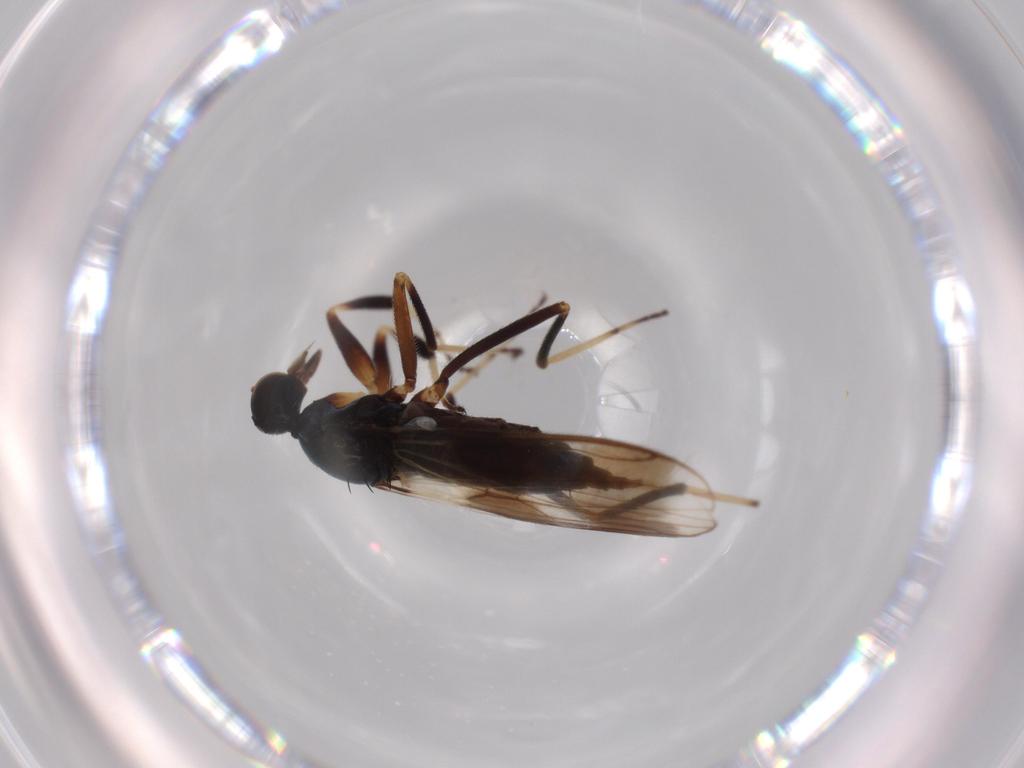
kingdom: Animalia
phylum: Arthropoda
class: Insecta
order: Diptera
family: Hybotidae
